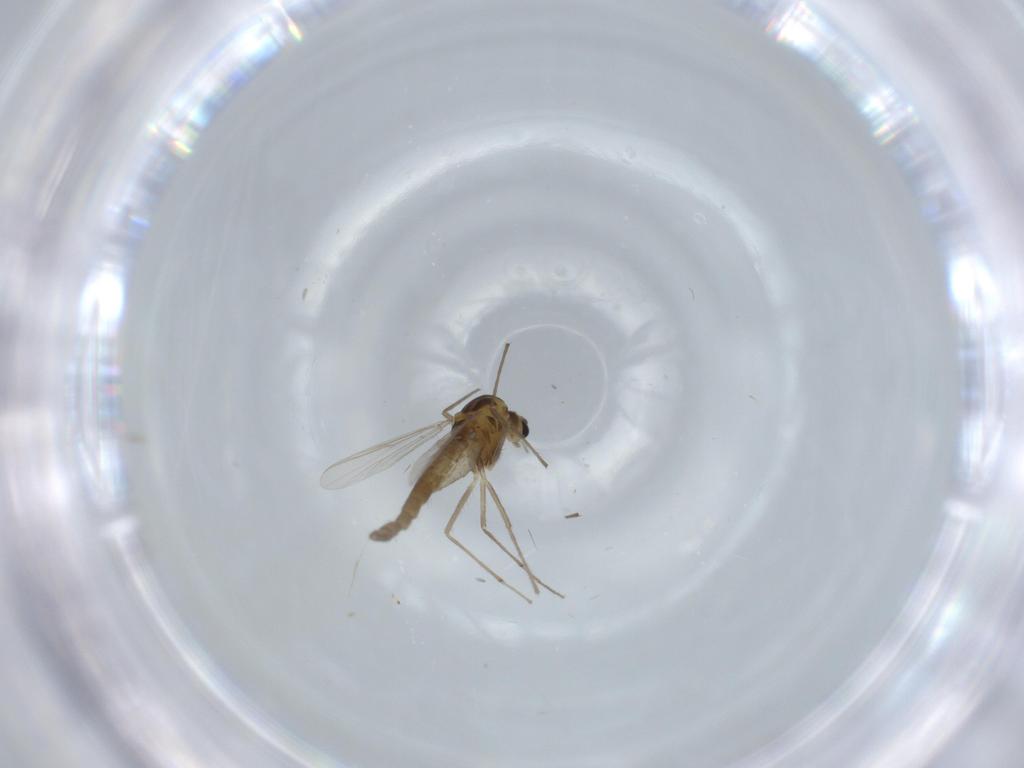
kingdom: Animalia
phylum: Arthropoda
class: Insecta
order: Diptera
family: Chironomidae
